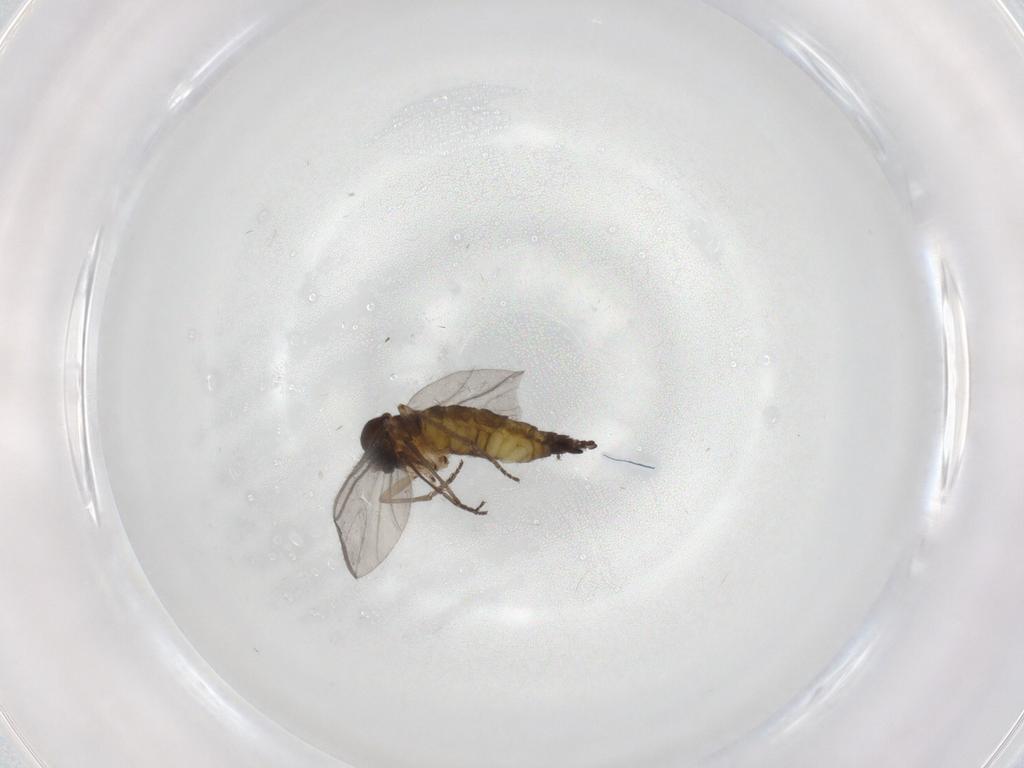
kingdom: Animalia
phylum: Arthropoda
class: Insecta
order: Diptera
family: Sciaridae
